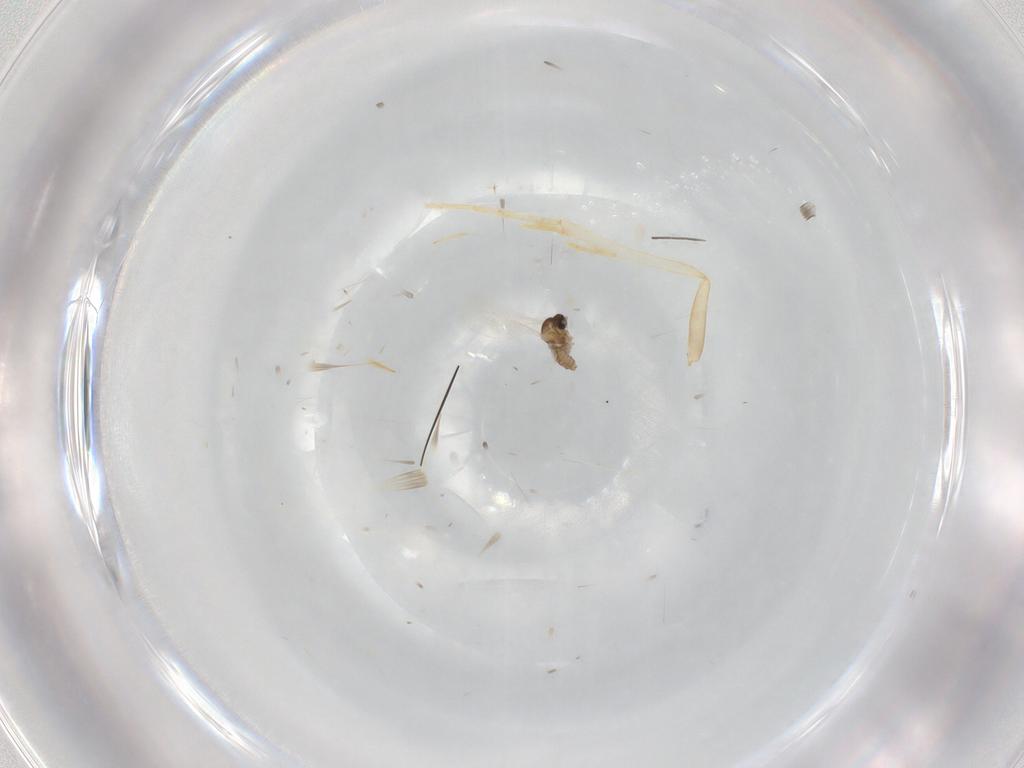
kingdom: Animalia
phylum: Arthropoda
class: Insecta
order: Diptera
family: Cecidomyiidae
